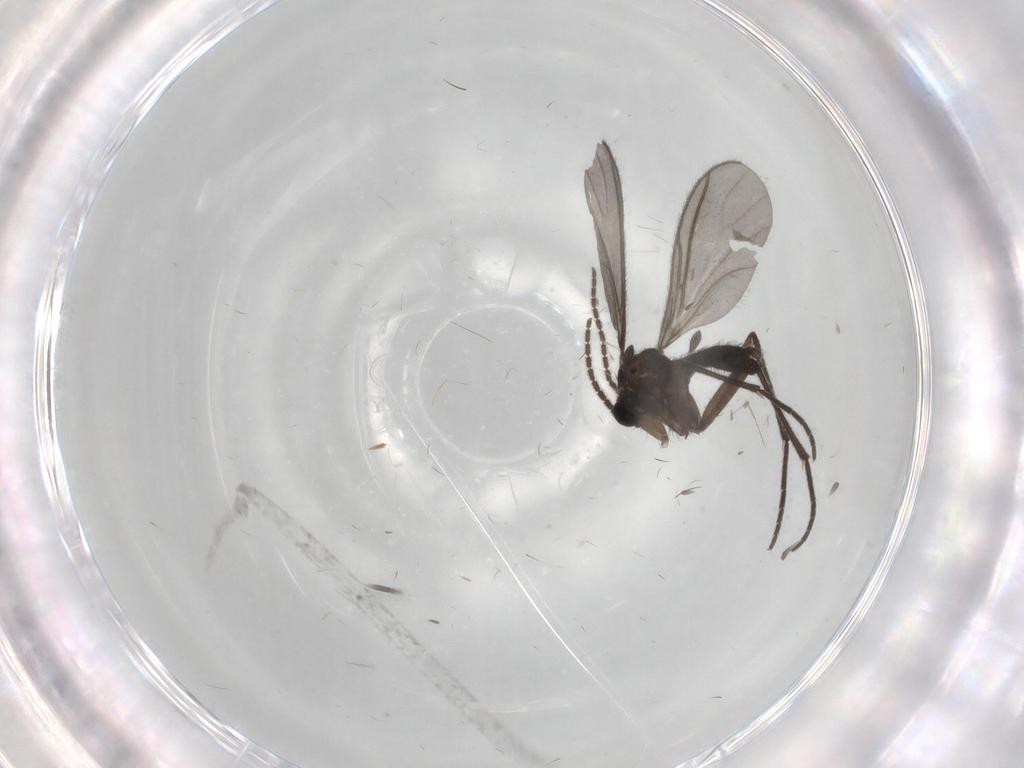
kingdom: Animalia
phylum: Arthropoda
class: Insecta
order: Diptera
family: Sciaridae
